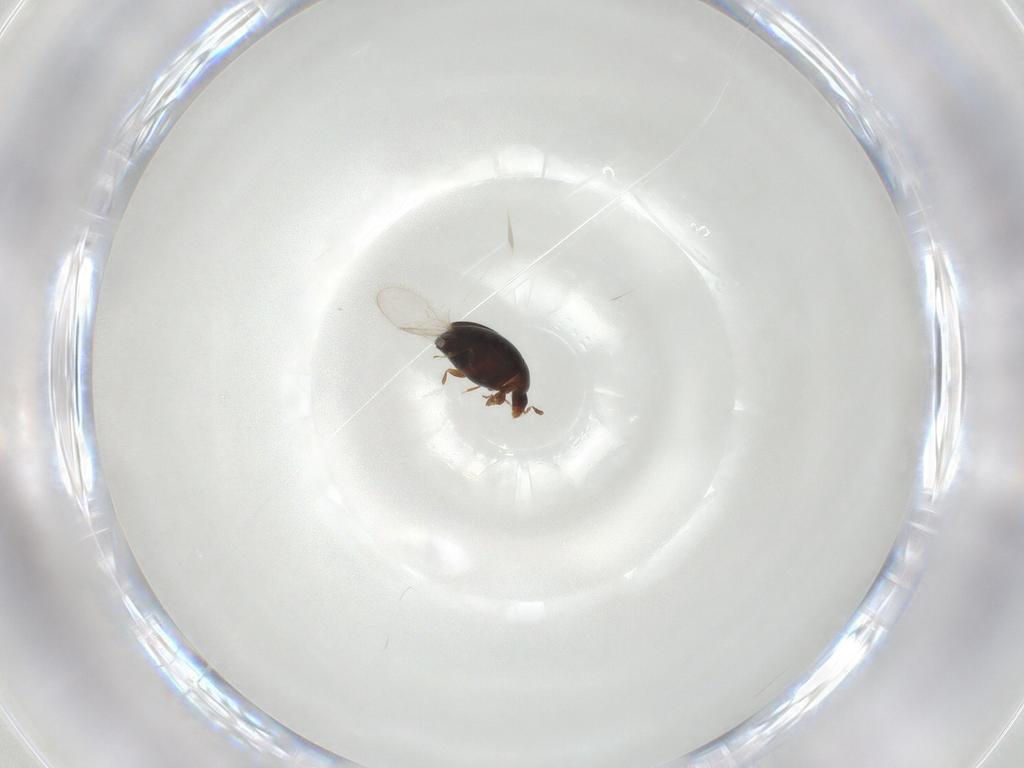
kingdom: Animalia
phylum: Arthropoda
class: Insecta
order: Coleoptera
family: Corylophidae
